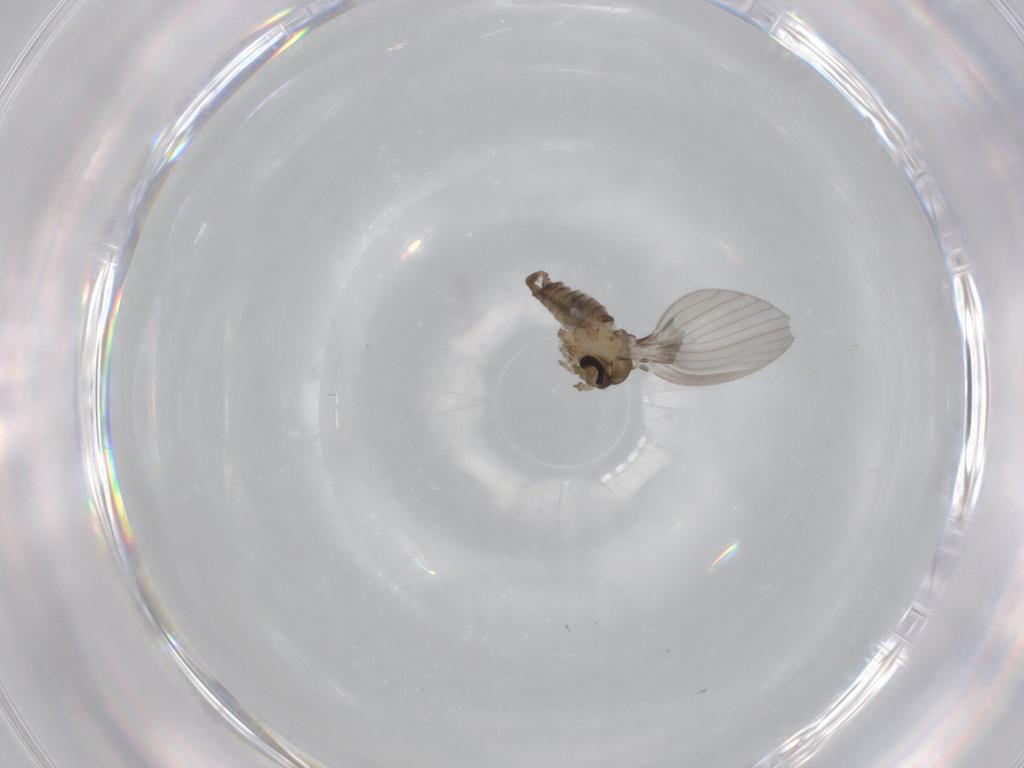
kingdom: Animalia
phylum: Arthropoda
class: Insecta
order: Diptera
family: Psychodidae
